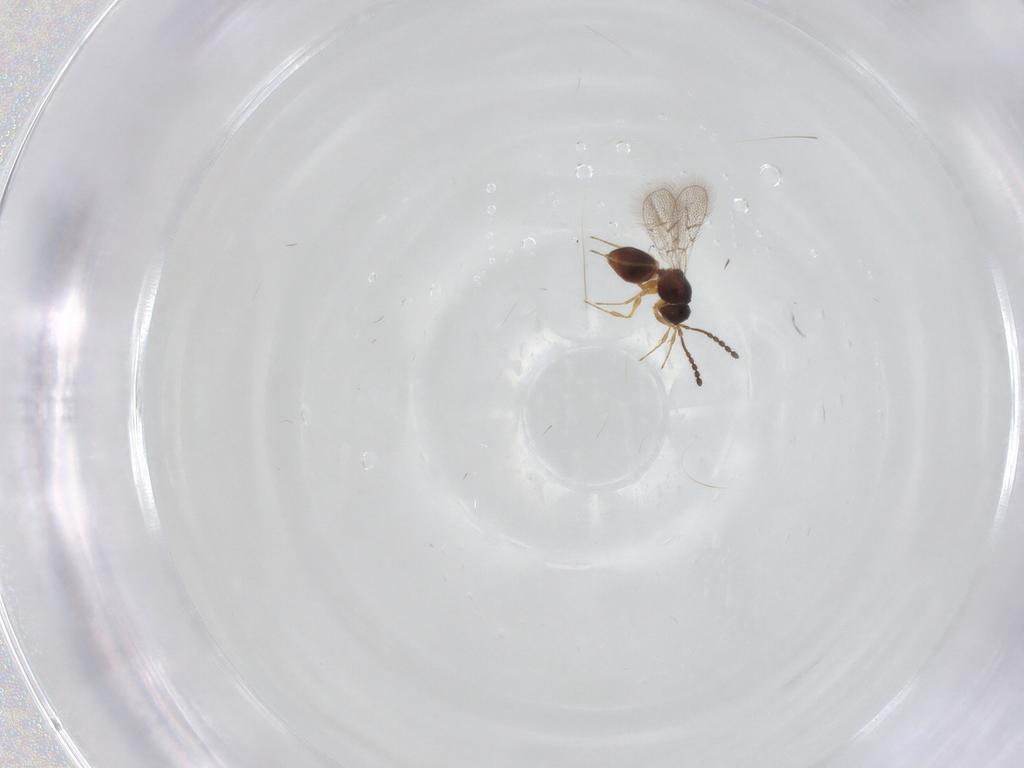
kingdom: Animalia
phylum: Arthropoda
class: Insecta
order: Hymenoptera
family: Figitidae
